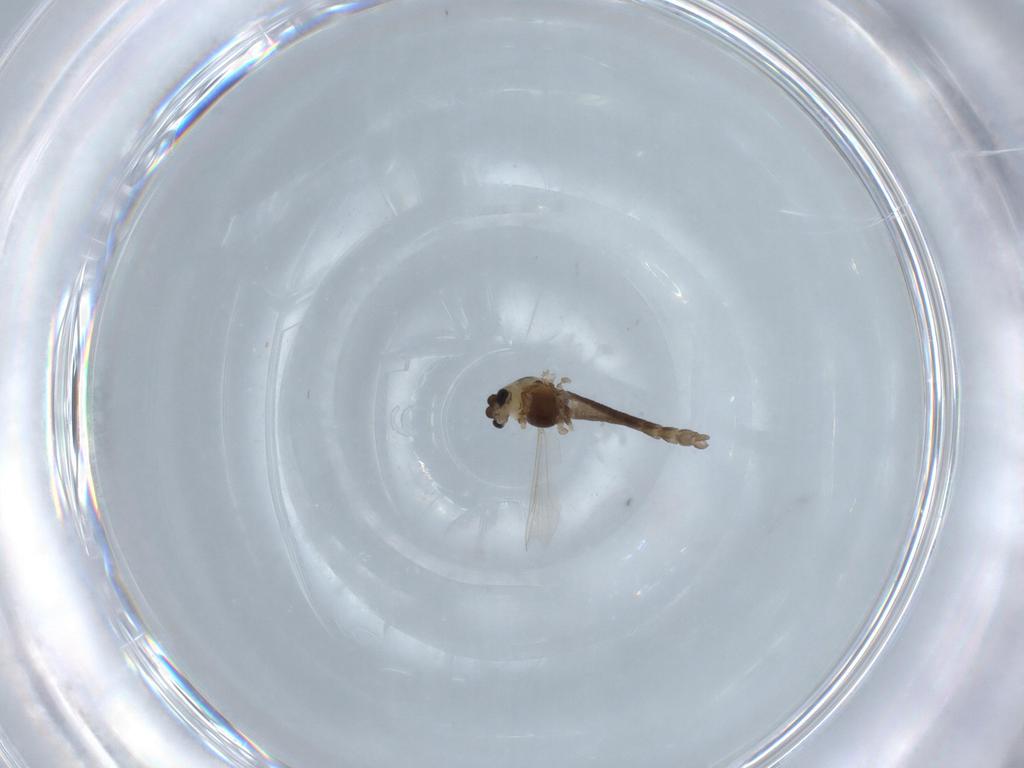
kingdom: Animalia
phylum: Arthropoda
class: Insecta
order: Diptera
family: Chironomidae
